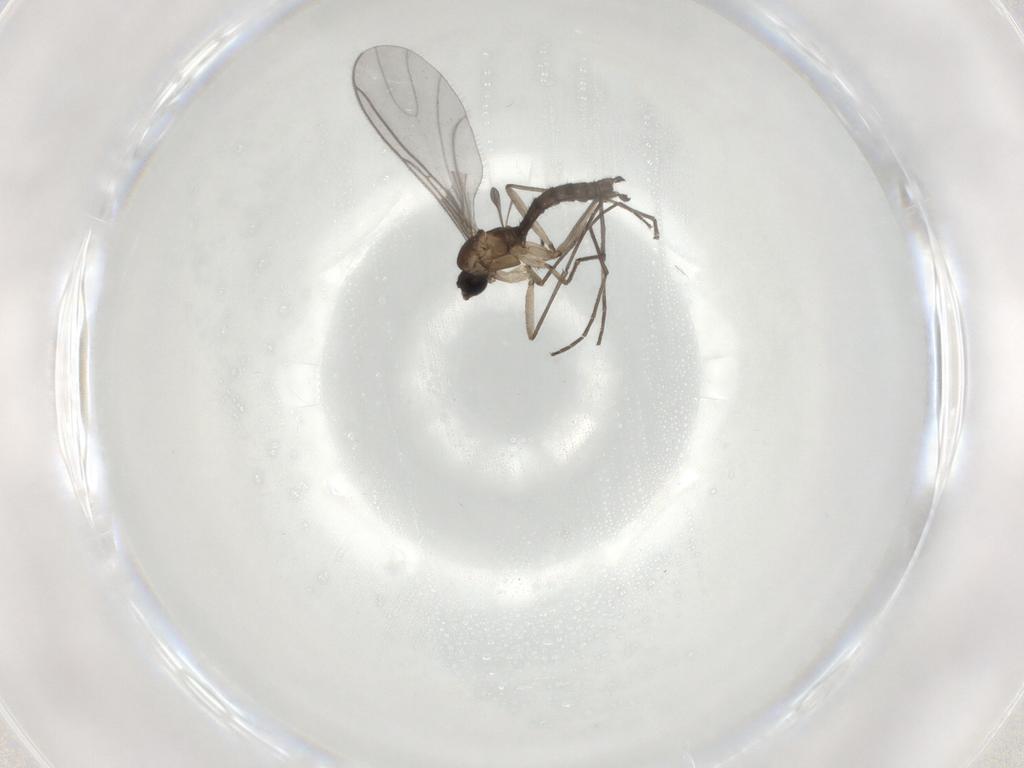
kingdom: Animalia
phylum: Arthropoda
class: Insecta
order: Diptera
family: Sciaridae
